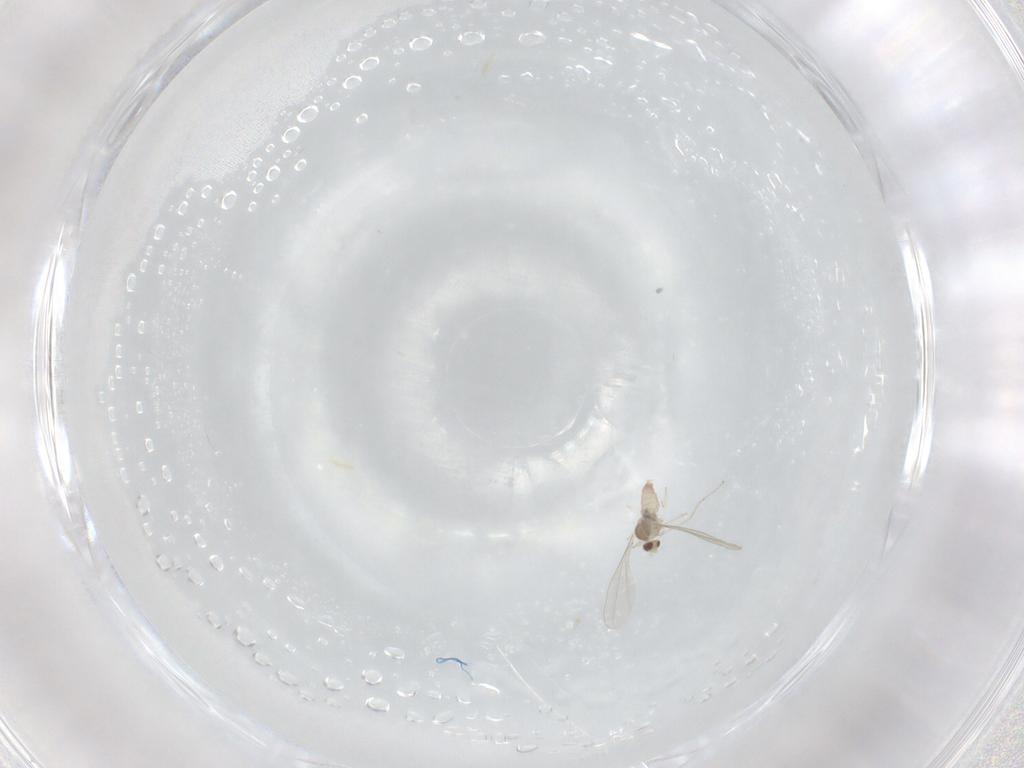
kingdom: Animalia
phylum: Arthropoda
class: Insecta
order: Diptera
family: Cecidomyiidae
